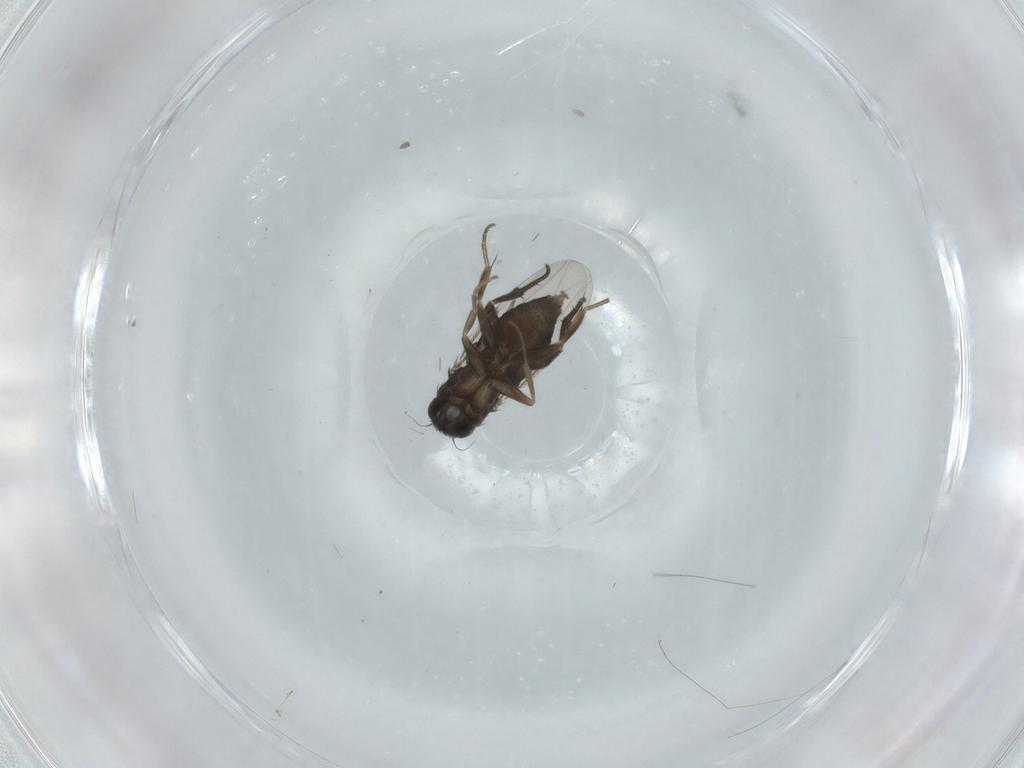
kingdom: Animalia
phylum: Arthropoda
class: Insecta
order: Diptera
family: Phoridae
